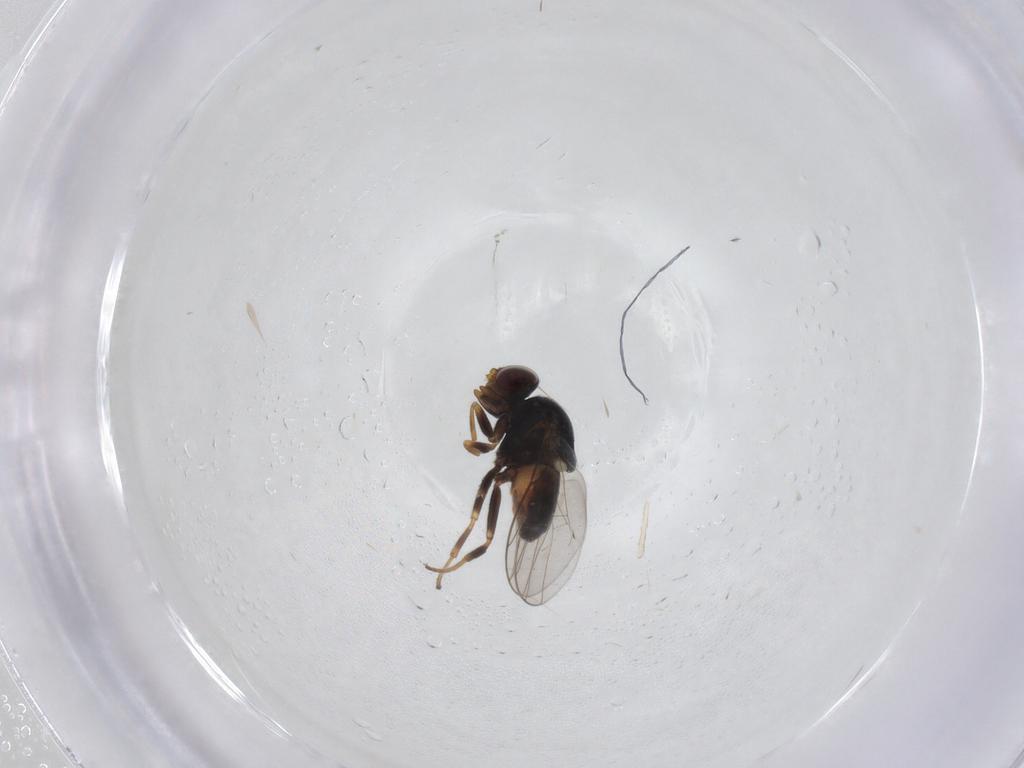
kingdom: Animalia
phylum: Arthropoda
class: Insecta
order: Diptera
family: Chloropidae
